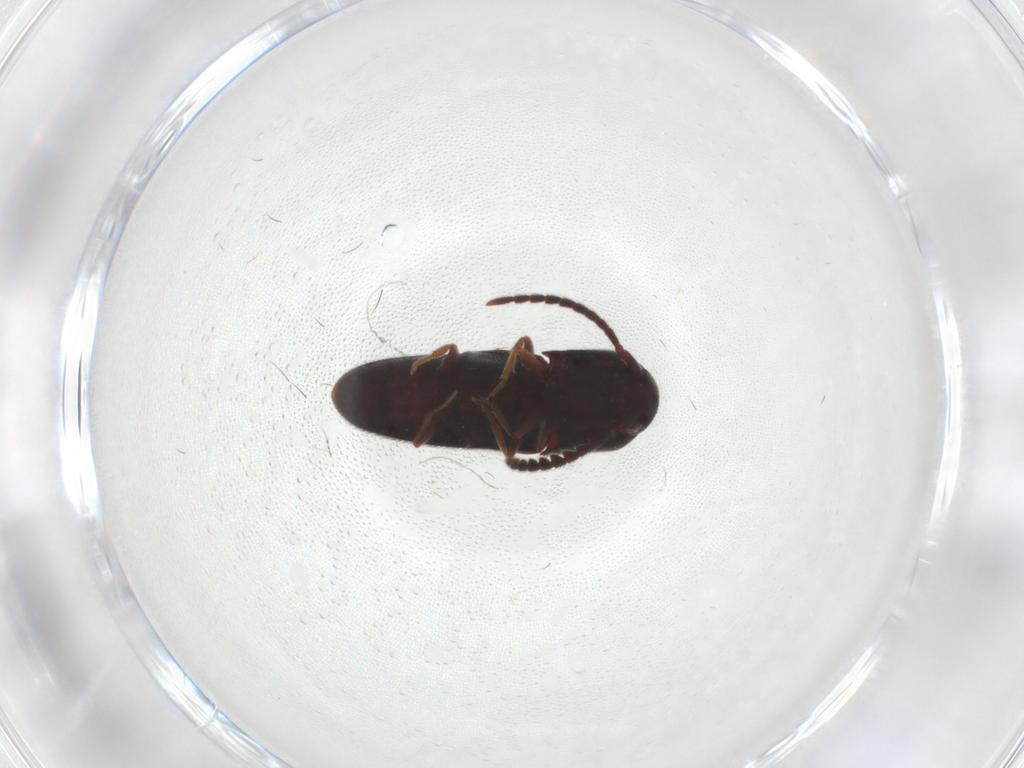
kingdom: Animalia
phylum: Arthropoda
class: Insecta
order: Coleoptera
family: Eucnemidae
